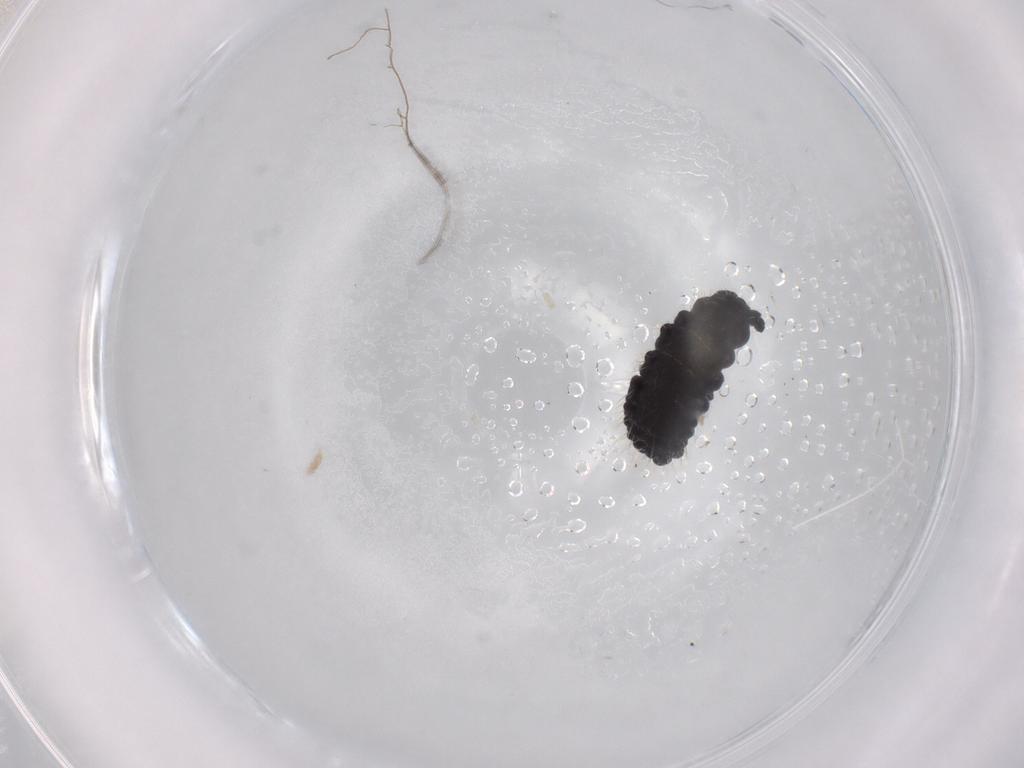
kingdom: Animalia
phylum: Arthropoda
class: Collembola
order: Poduromorpha
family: Neanuridae
